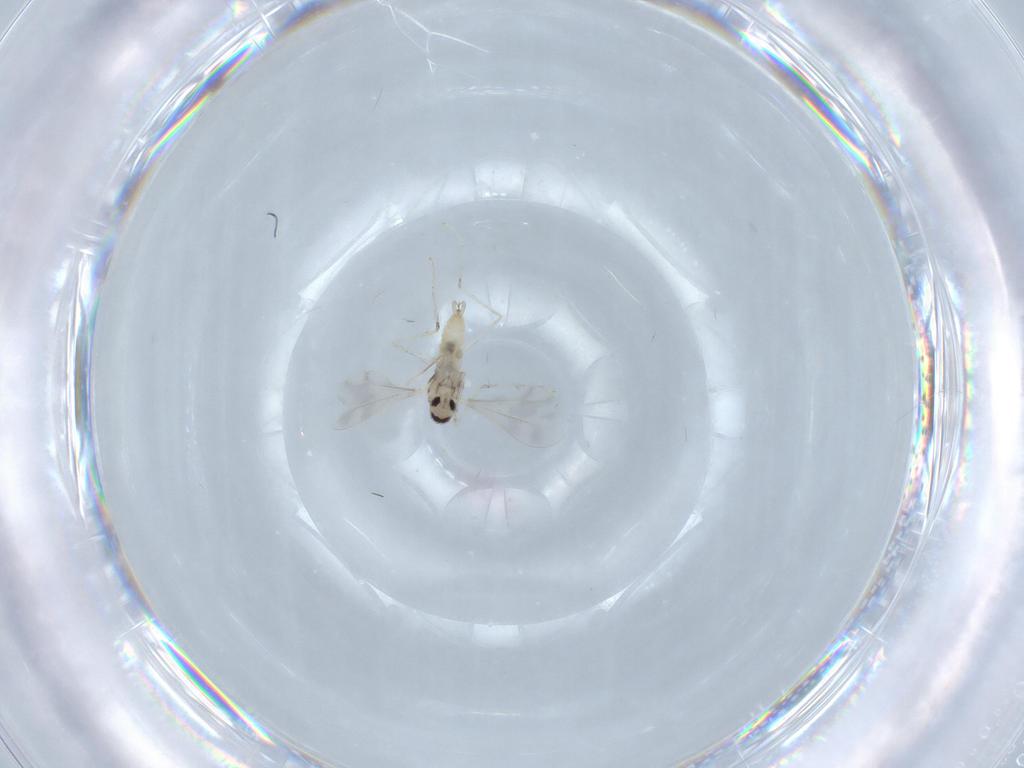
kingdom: Animalia
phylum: Arthropoda
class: Insecta
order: Diptera
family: Cecidomyiidae
